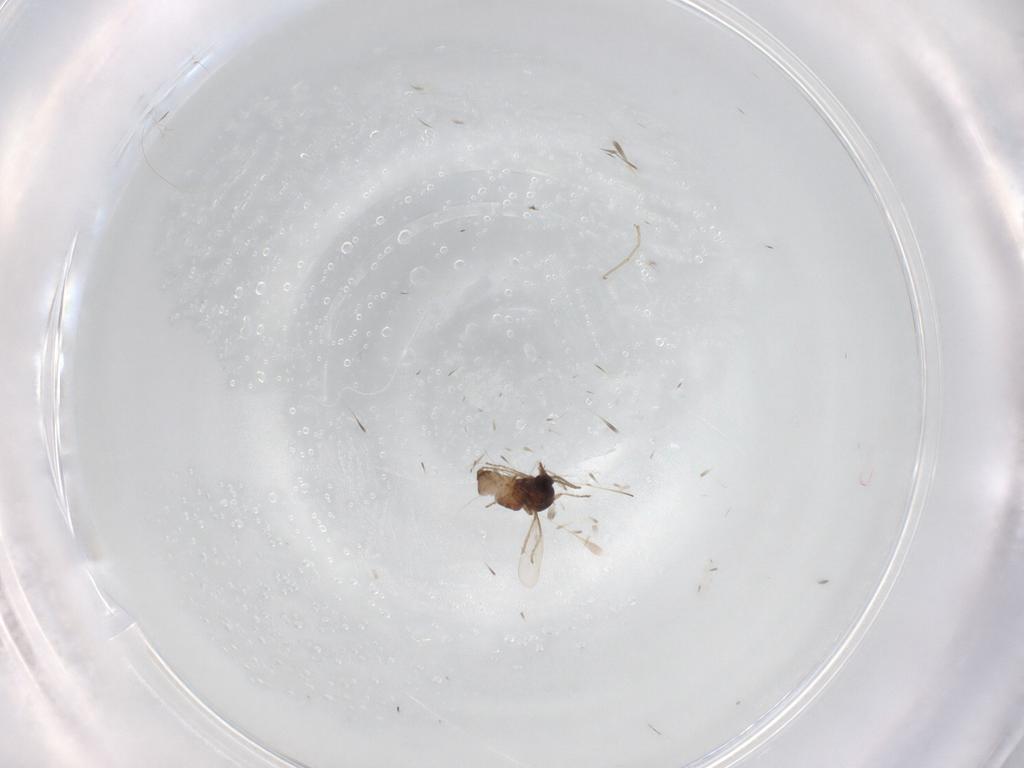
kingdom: Animalia
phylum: Arthropoda
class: Insecta
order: Diptera
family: Ceratopogonidae
